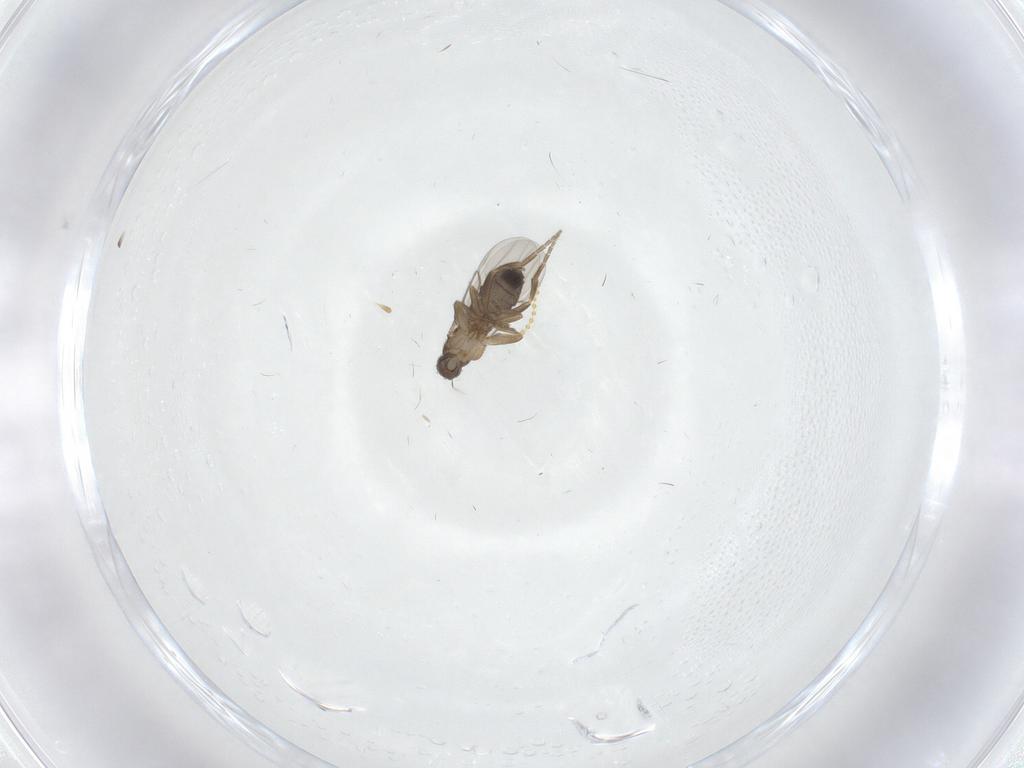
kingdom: Animalia
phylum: Arthropoda
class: Insecta
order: Diptera
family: Phoridae
